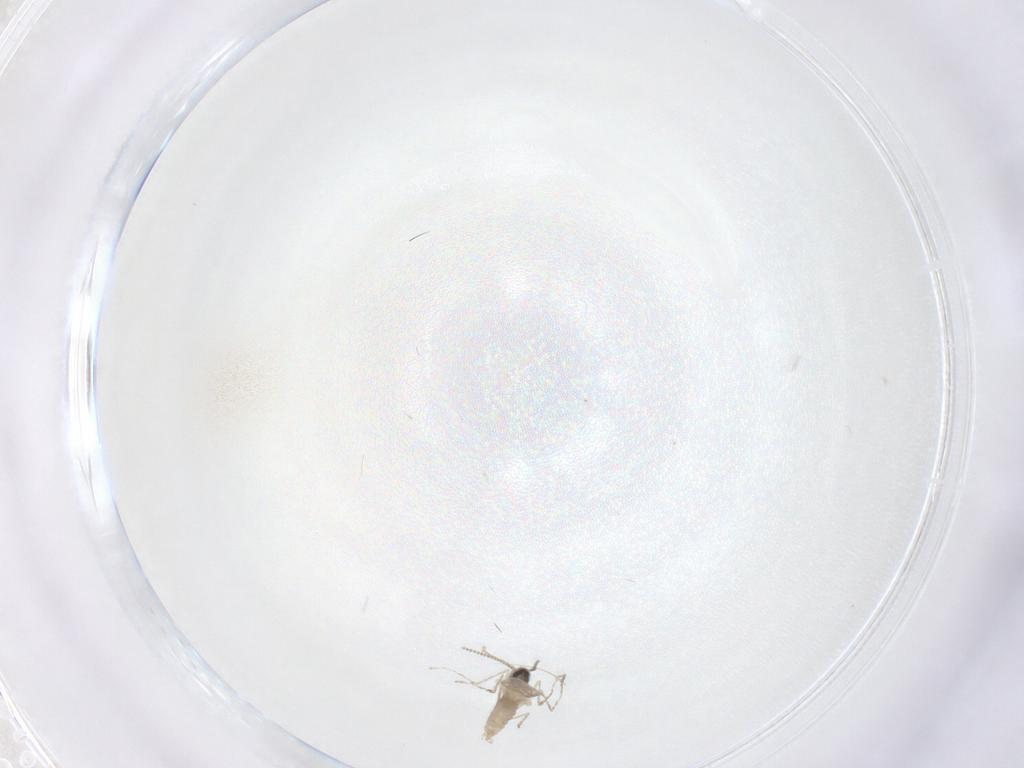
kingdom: Animalia
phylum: Arthropoda
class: Insecta
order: Diptera
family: Cecidomyiidae
